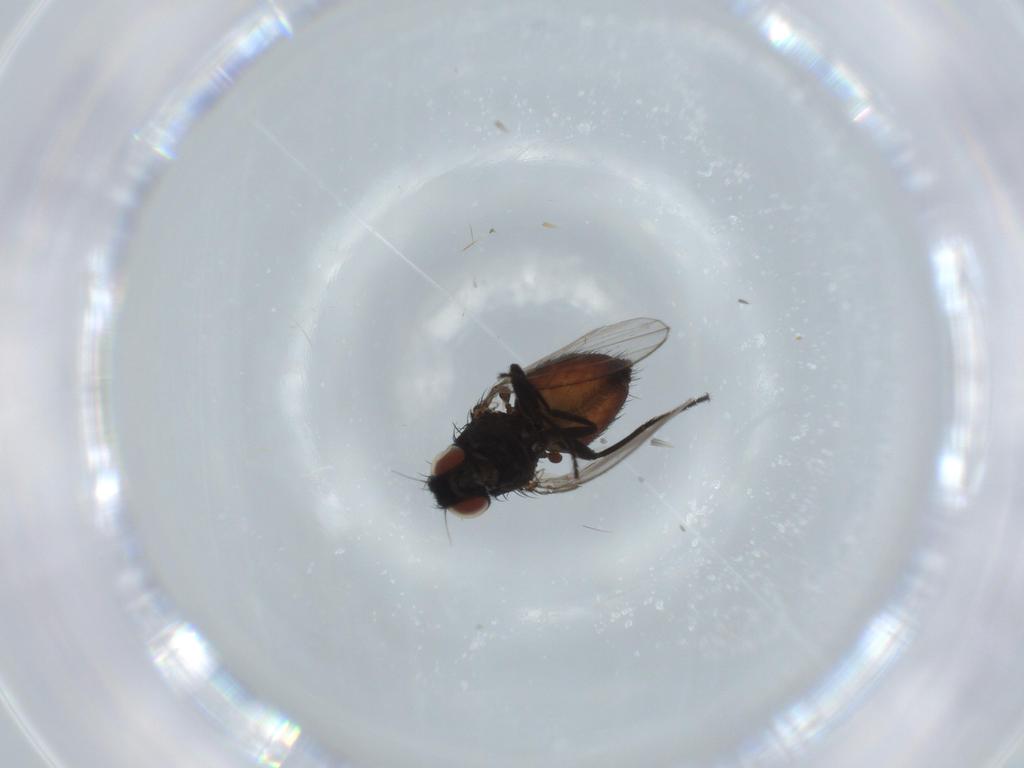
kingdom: Animalia
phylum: Arthropoda
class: Insecta
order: Diptera
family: Milichiidae
